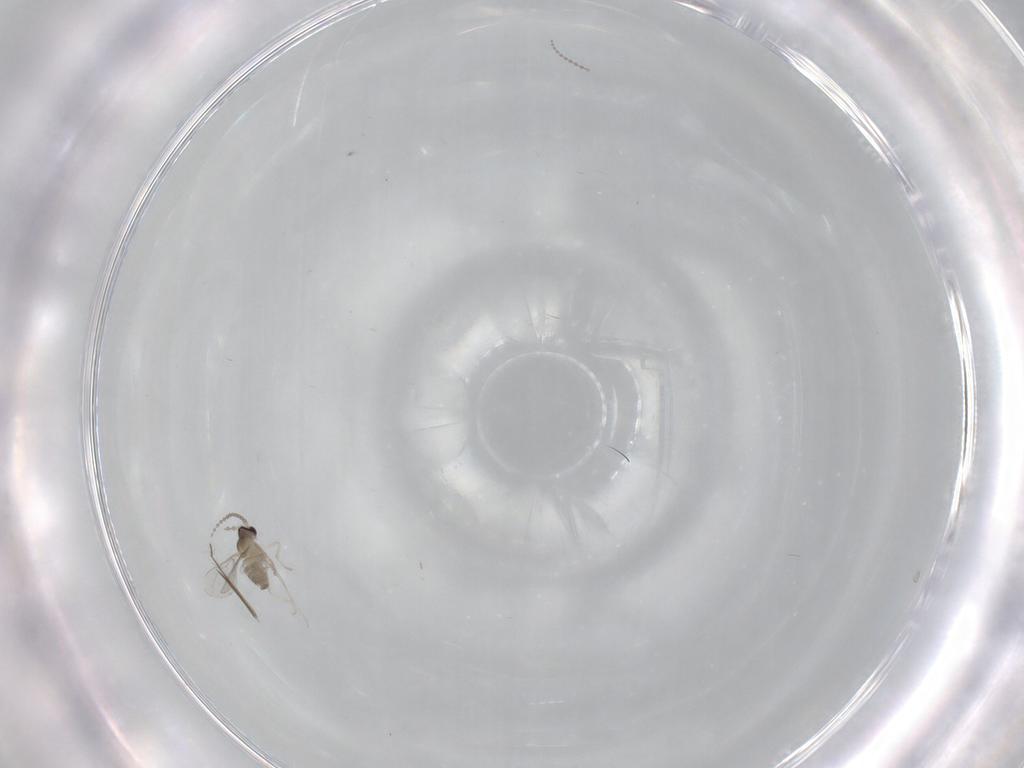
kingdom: Animalia
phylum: Arthropoda
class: Insecta
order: Diptera
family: Cecidomyiidae
